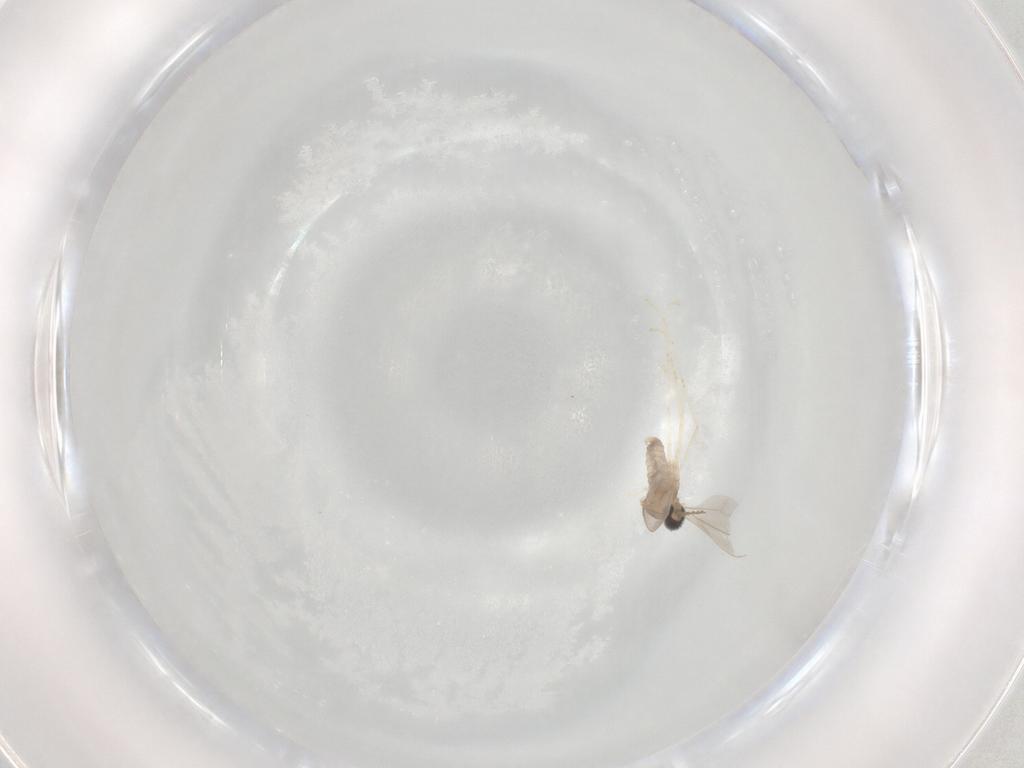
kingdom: Animalia
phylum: Arthropoda
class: Insecta
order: Diptera
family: Cecidomyiidae
